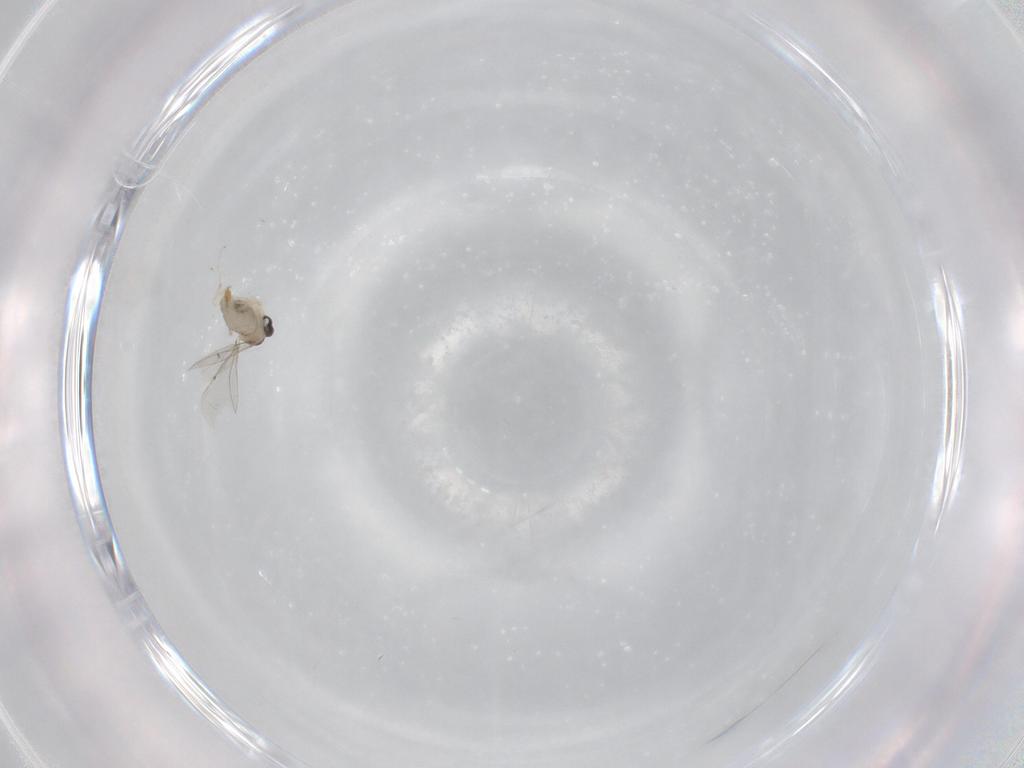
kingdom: Animalia
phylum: Arthropoda
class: Insecta
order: Diptera
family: Cecidomyiidae
